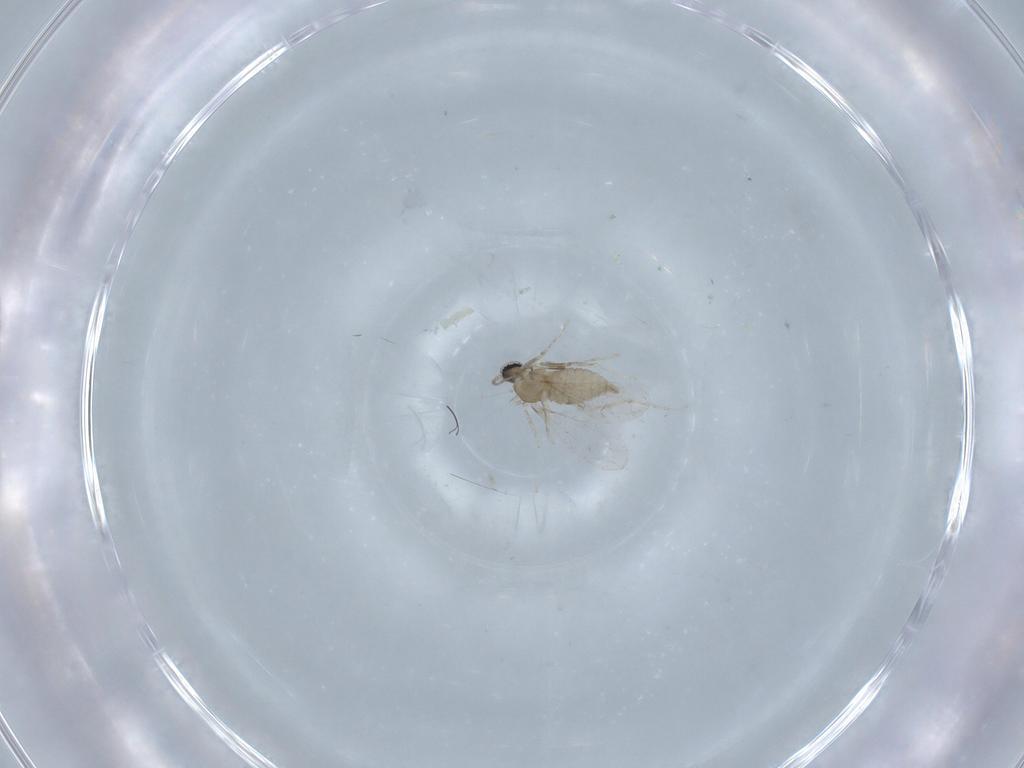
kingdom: Animalia
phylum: Arthropoda
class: Insecta
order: Diptera
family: Cecidomyiidae
